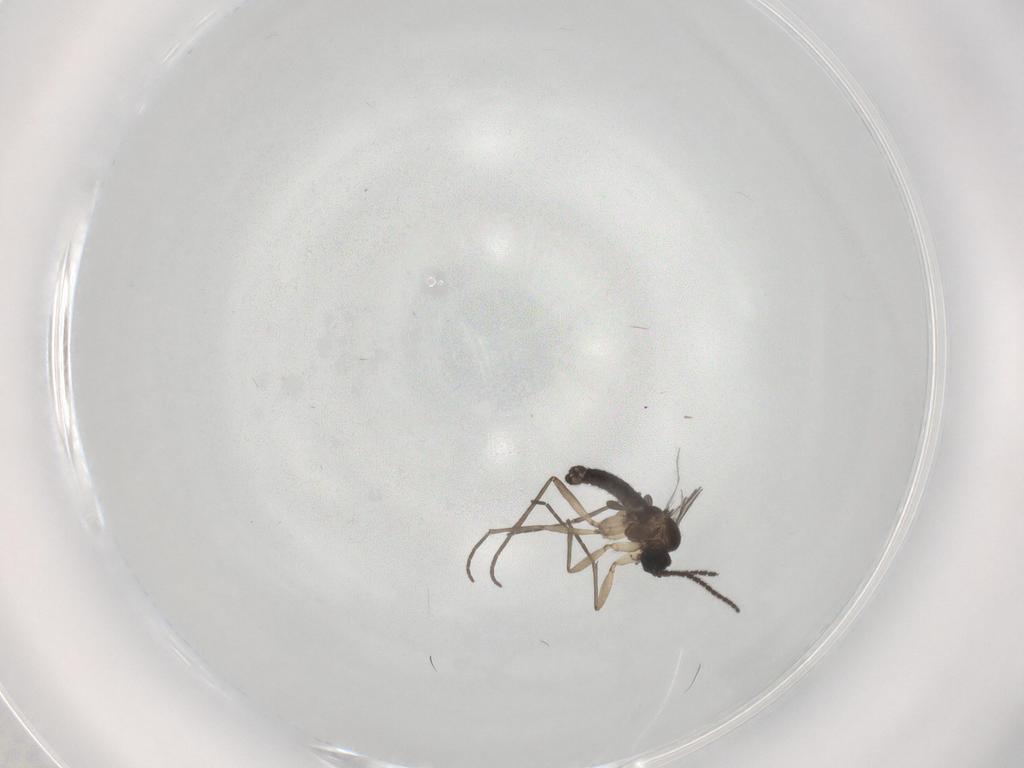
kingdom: Animalia
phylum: Arthropoda
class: Insecta
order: Diptera
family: Sciaridae
